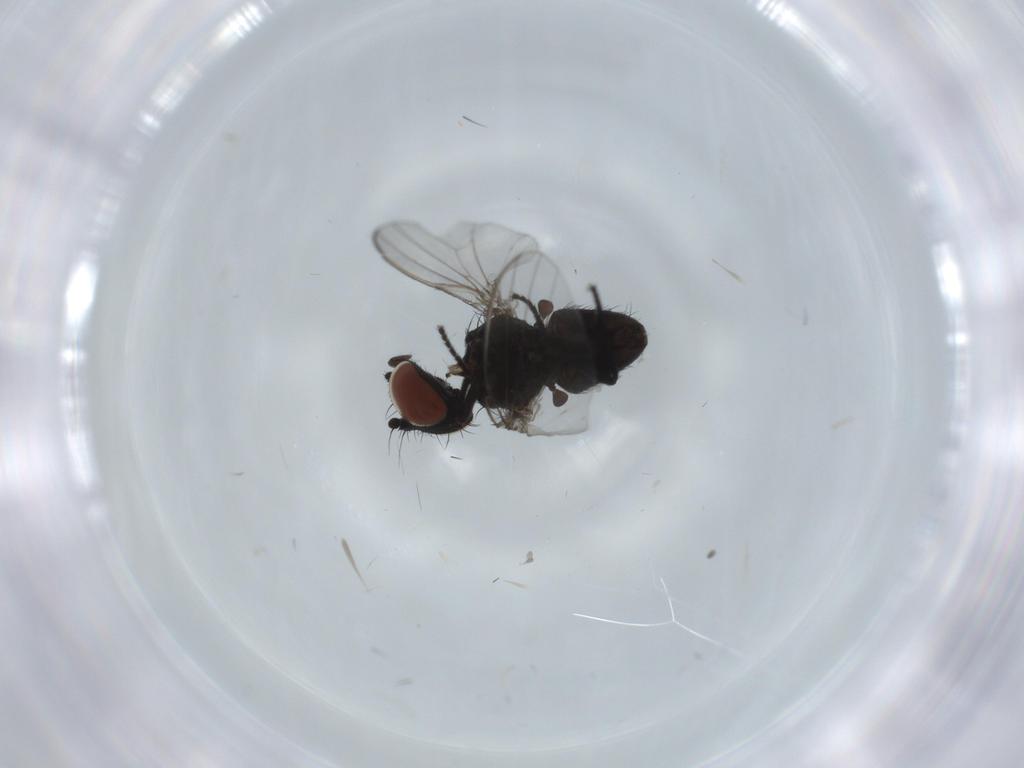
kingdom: Animalia
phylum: Arthropoda
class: Insecta
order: Diptera
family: Milichiidae
